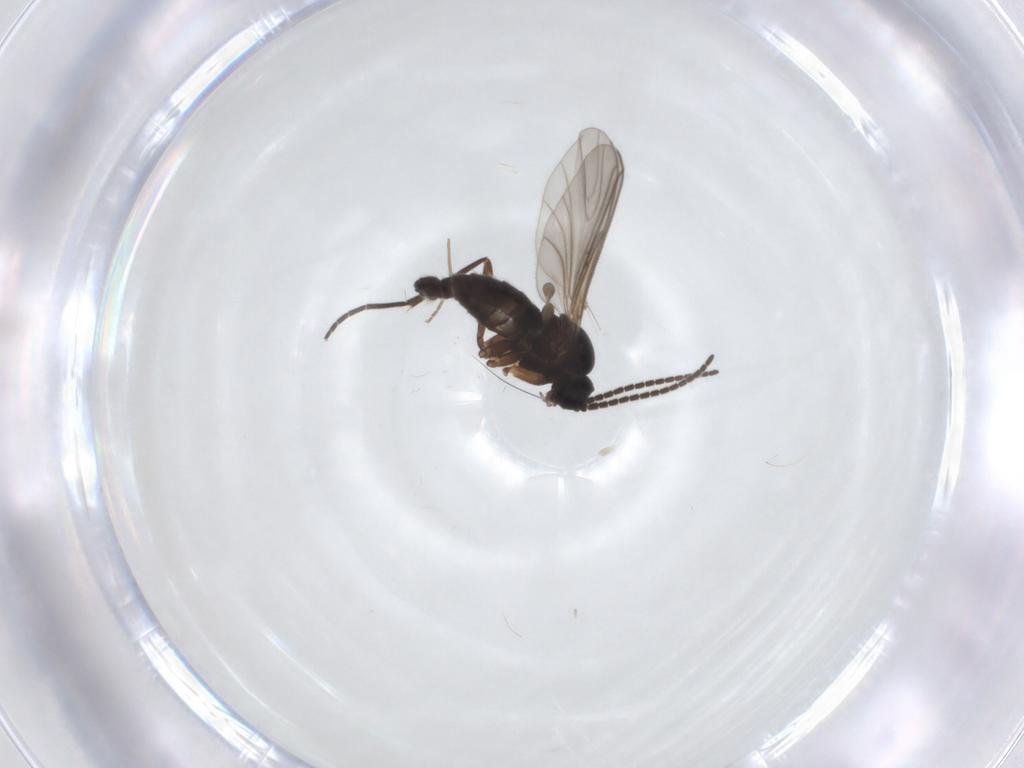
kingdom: Animalia
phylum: Arthropoda
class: Insecta
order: Diptera
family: Sciaridae
